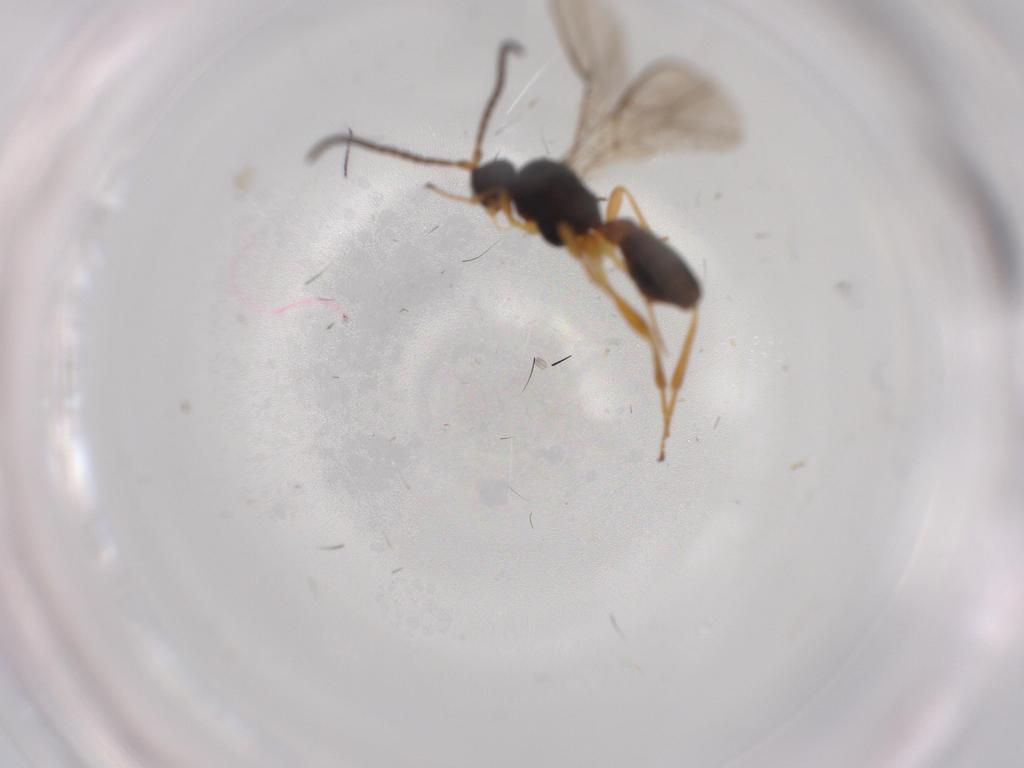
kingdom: Animalia
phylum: Arthropoda
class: Insecta
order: Hymenoptera
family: Braconidae
